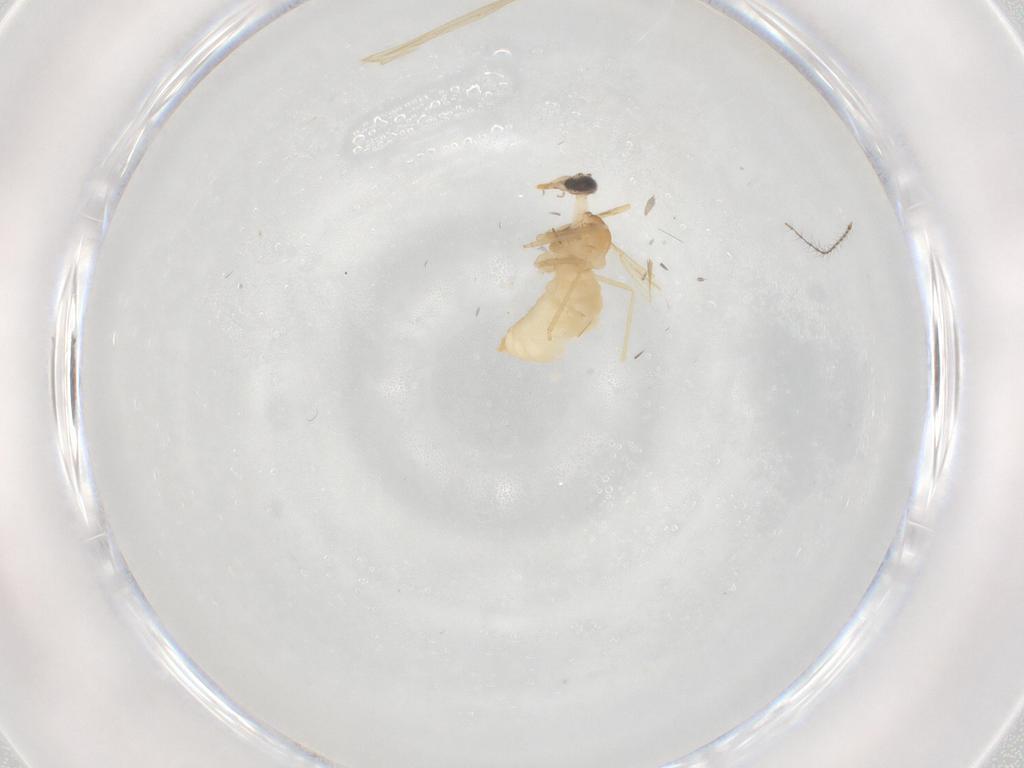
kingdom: Animalia
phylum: Arthropoda
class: Insecta
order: Diptera
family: Cecidomyiidae
